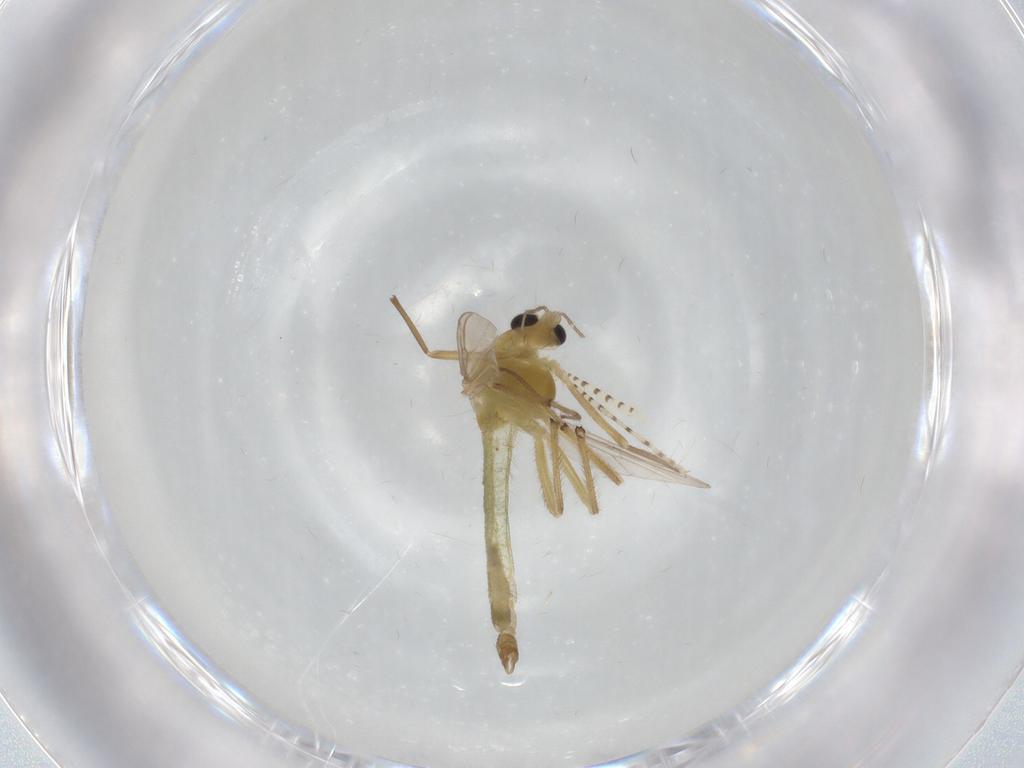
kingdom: Animalia
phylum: Arthropoda
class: Insecta
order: Diptera
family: Chironomidae
